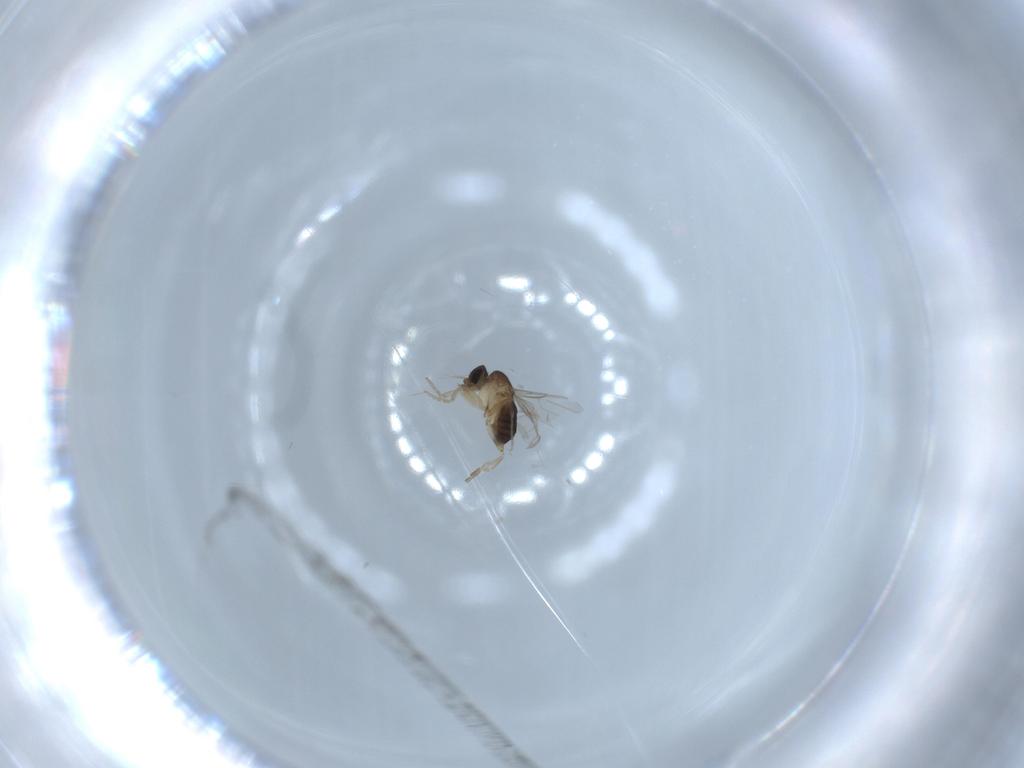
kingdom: Animalia
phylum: Arthropoda
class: Insecta
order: Diptera
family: Phoridae
